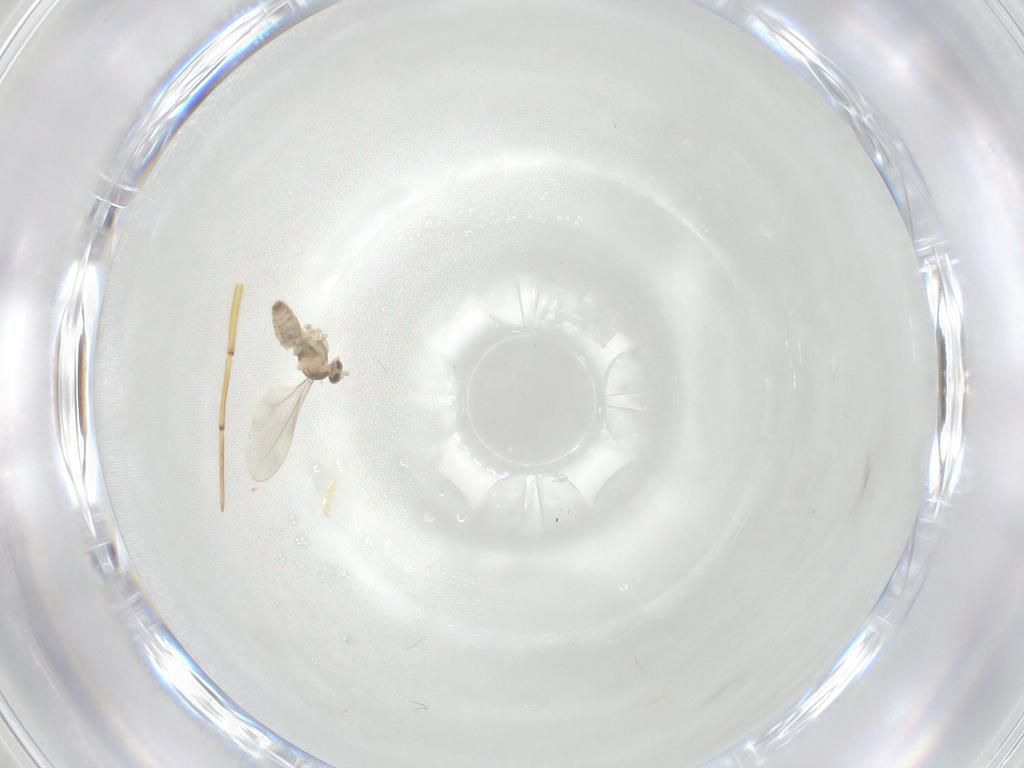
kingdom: Animalia
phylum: Arthropoda
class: Insecta
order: Diptera
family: Cecidomyiidae
